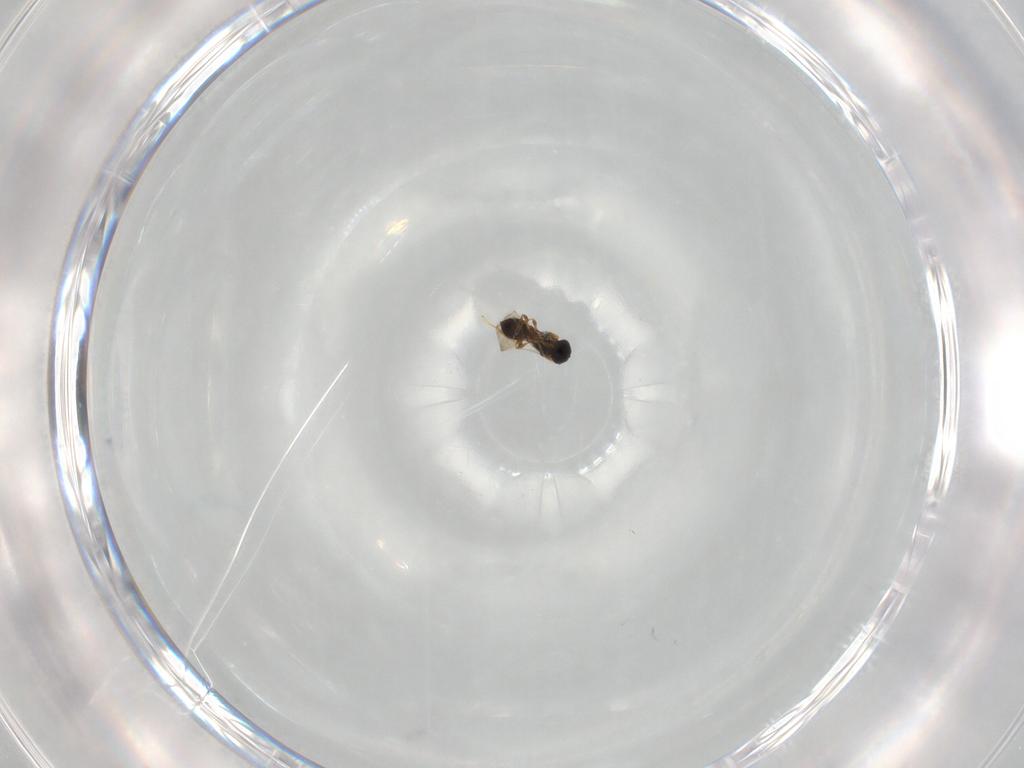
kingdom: Animalia
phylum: Arthropoda
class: Insecta
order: Hymenoptera
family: Mymaridae
